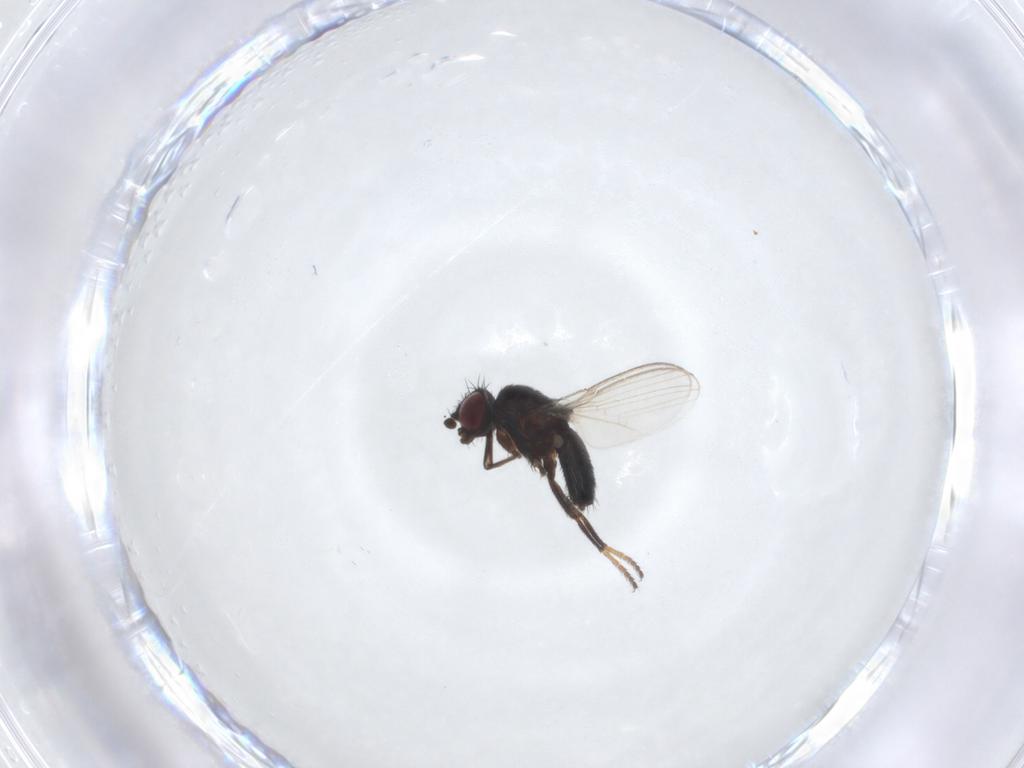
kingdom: Animalia
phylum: Arthropoda
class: Insecta
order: Diptera
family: Milichiidae
